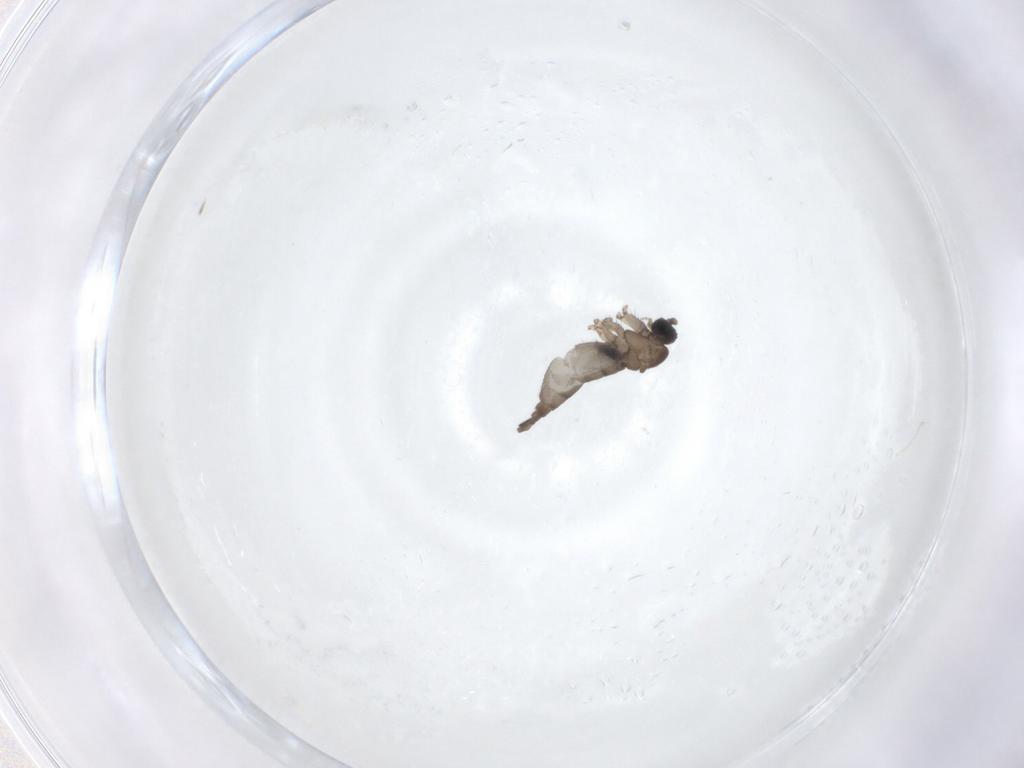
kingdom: Animalia
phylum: Arthropoda
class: Insecta
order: Diptera
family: Sciaridae
